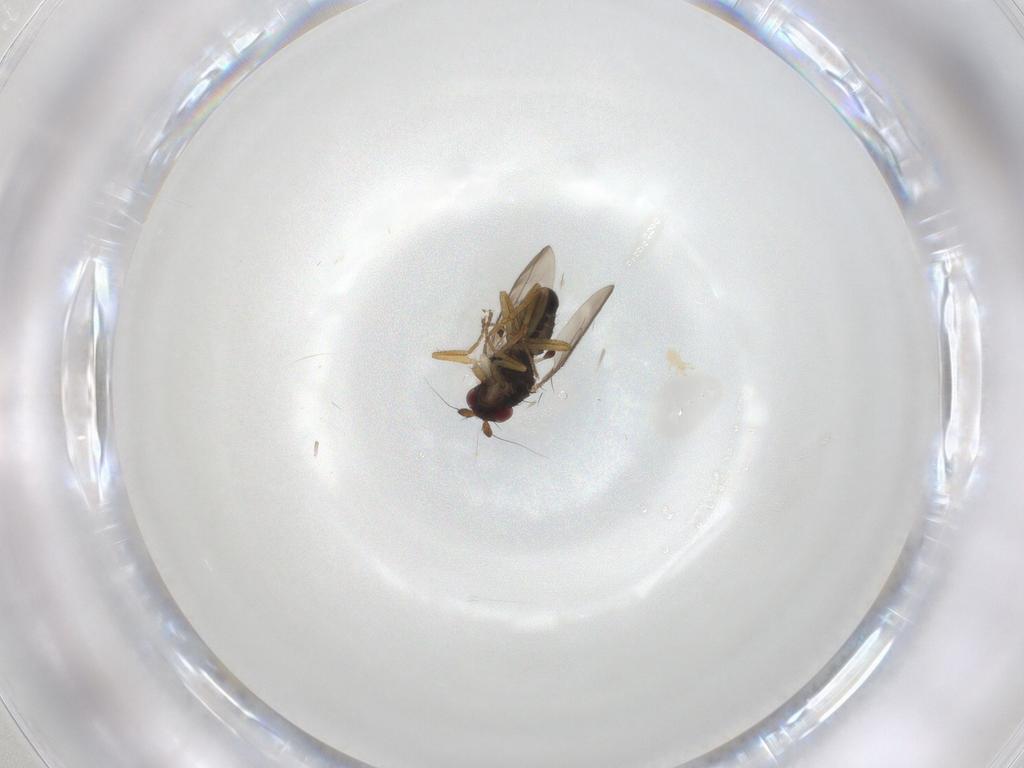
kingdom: Animalia
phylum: Arthropoda
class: Insecta
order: Diptera
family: Sphaeroceridae
